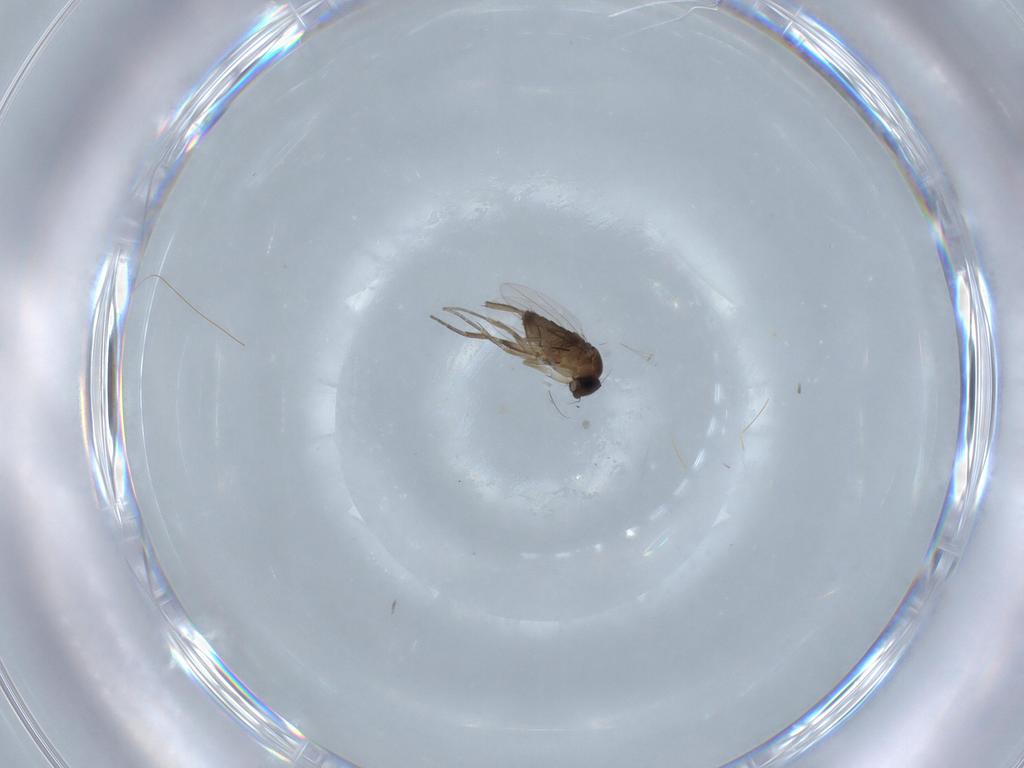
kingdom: Animalia
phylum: Arthropoda
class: Insecta
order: Diptera
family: Phoridae
